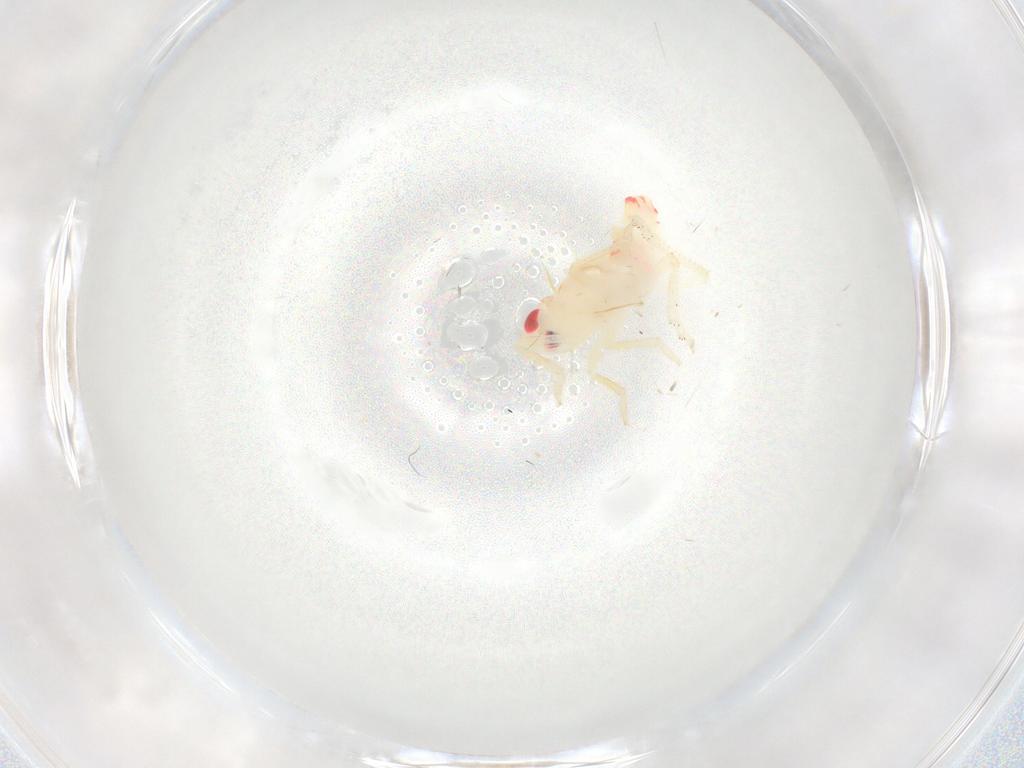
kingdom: Animalia
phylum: Arthropoda
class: Insecta
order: Hemiptera
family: Tropiduchidae
